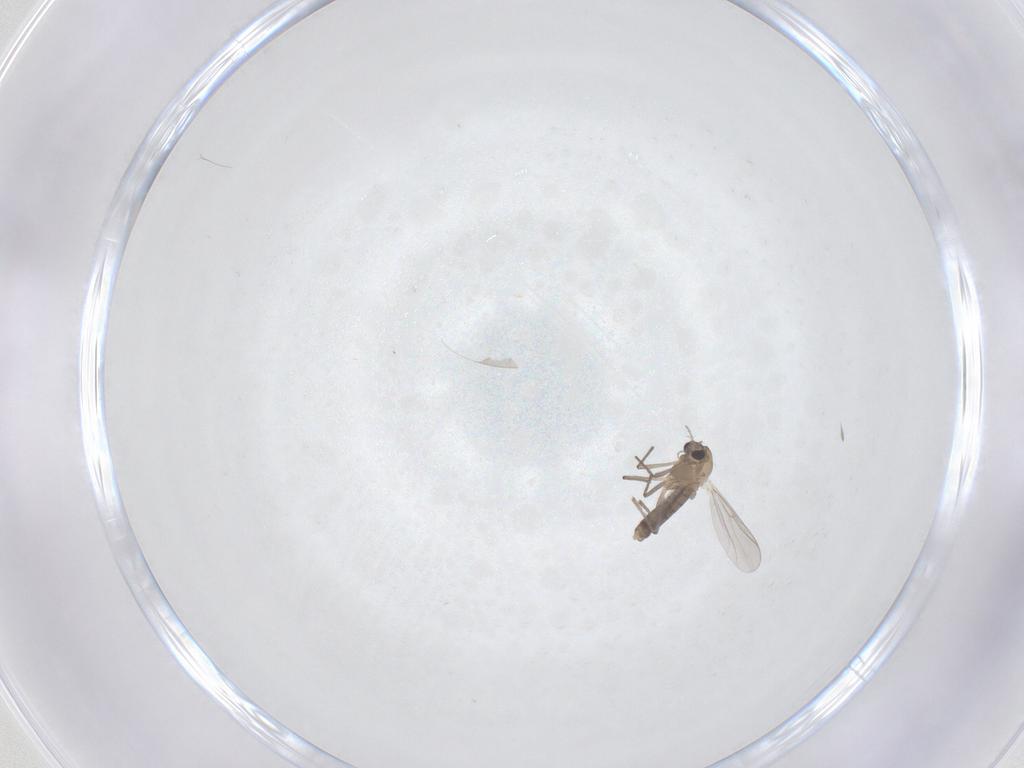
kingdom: Animalia
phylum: Arthropoda
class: Insecta
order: Diptera
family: Chironomidae
